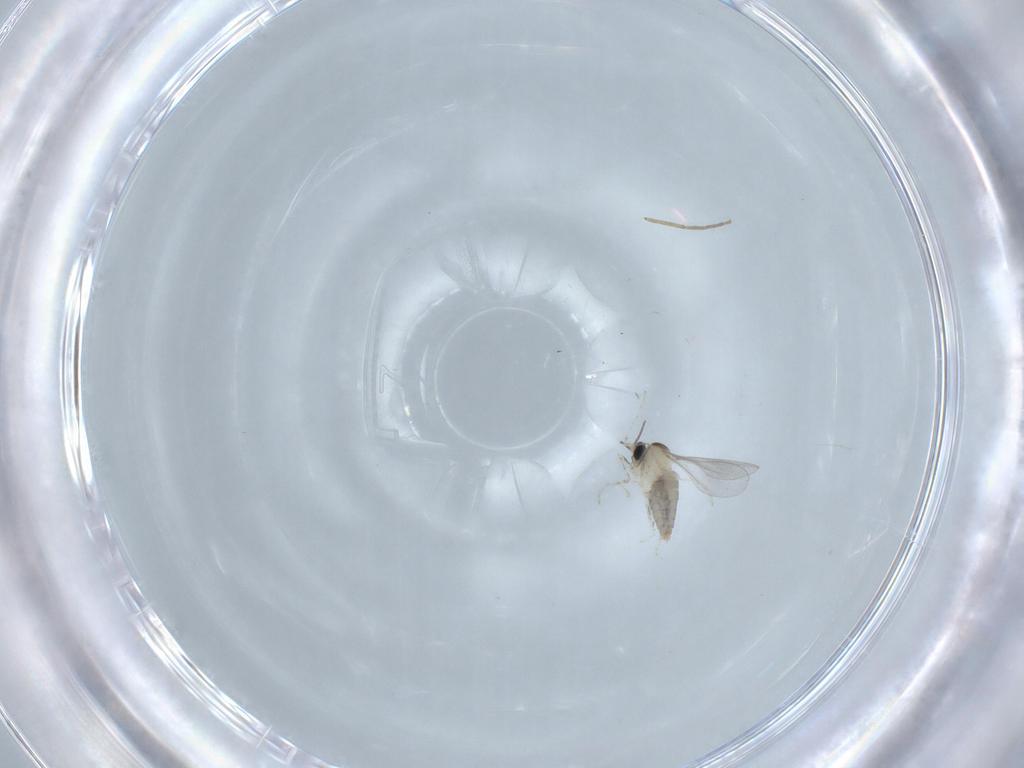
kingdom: Animalia
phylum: Arthropoda
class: Insecta
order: Diptera
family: Cecidomyiidae
